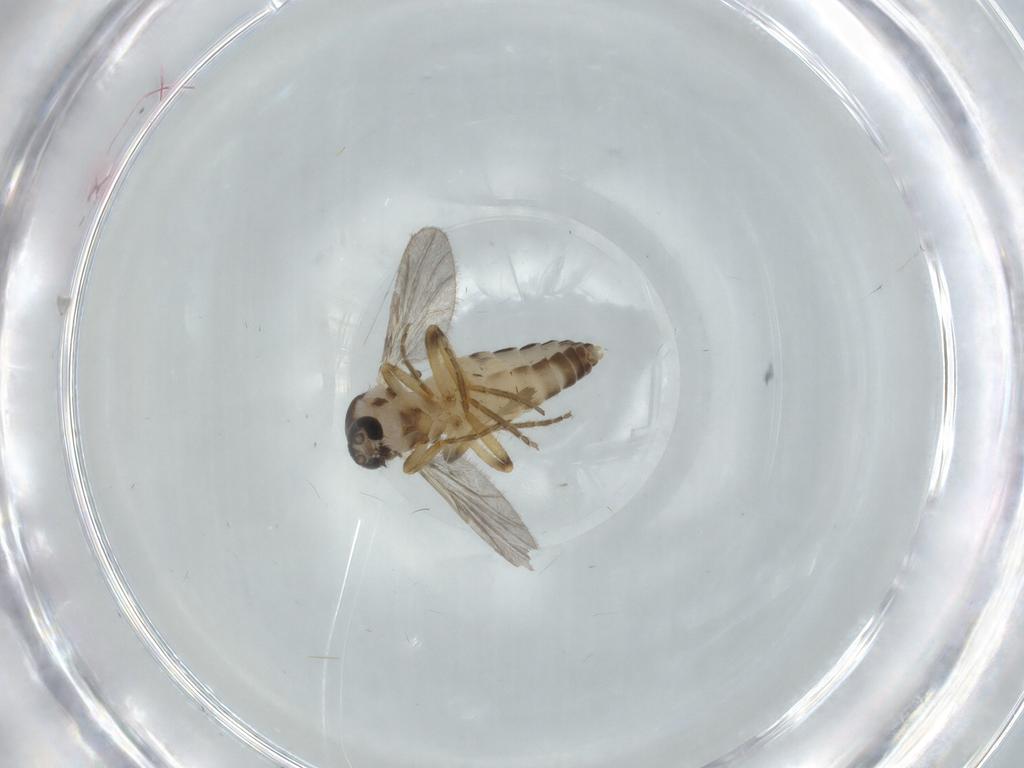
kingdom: Animalia
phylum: Arthropoda
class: Insecta
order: Diptera
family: Ceratopogonidae
